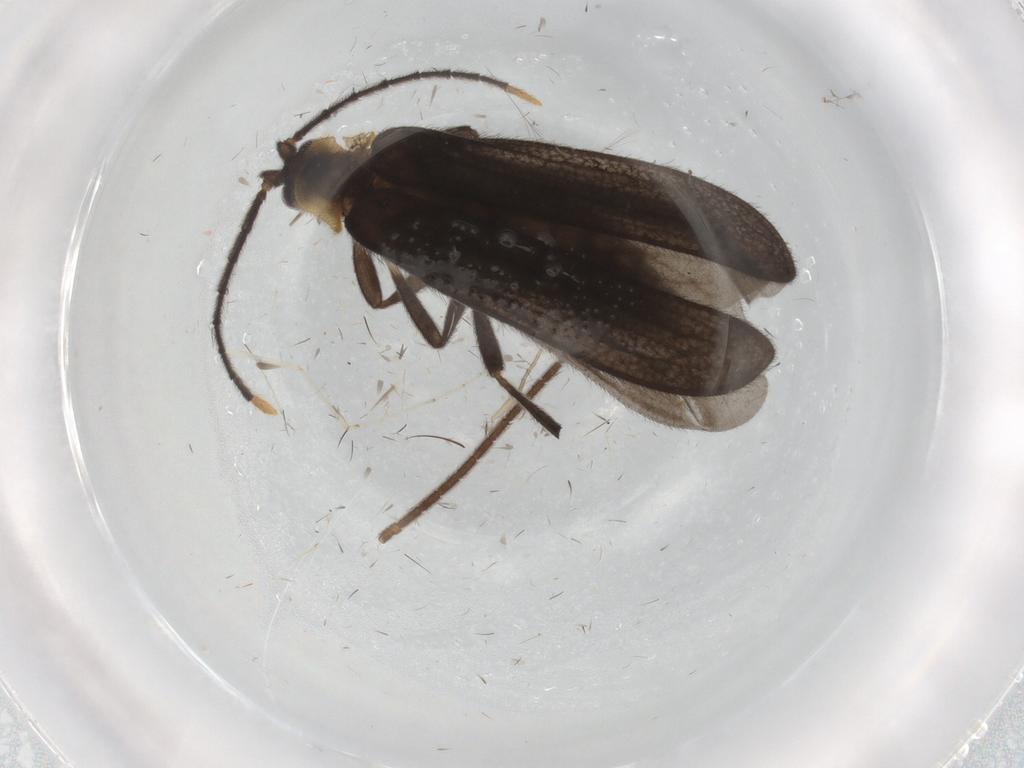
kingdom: Animalia
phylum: Arthropoda
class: Insecta
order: Coleoptera
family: Lycidae
